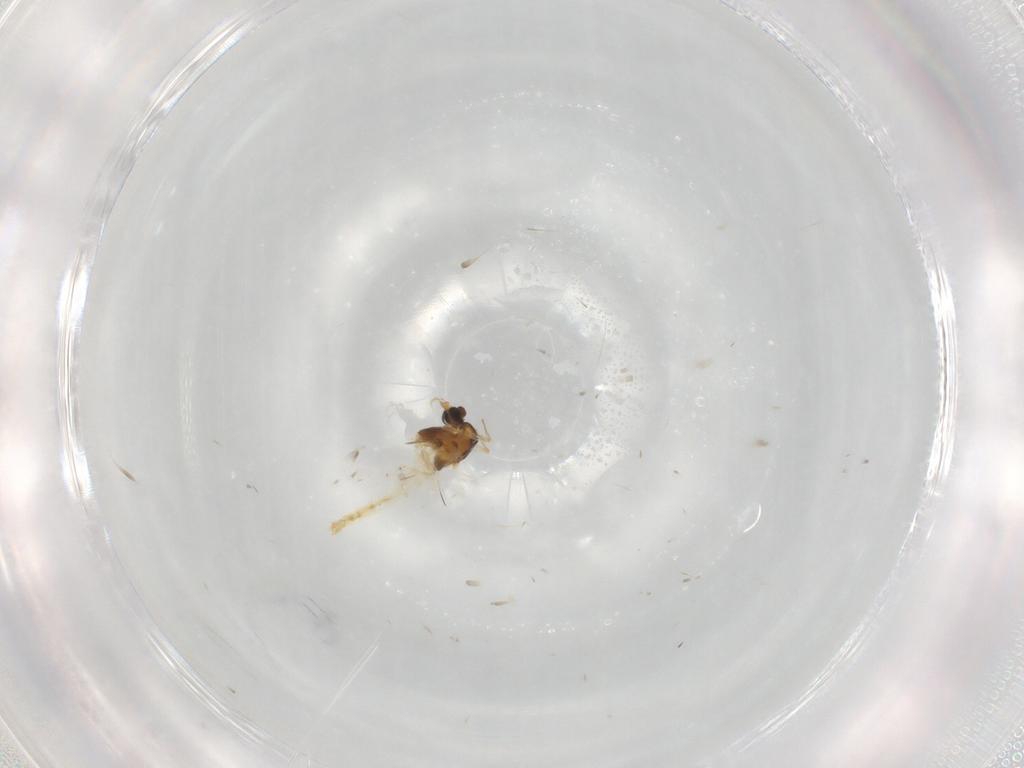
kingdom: Animalia
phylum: Arthropoda
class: Insecta
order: Diptera
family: Chironomidae
